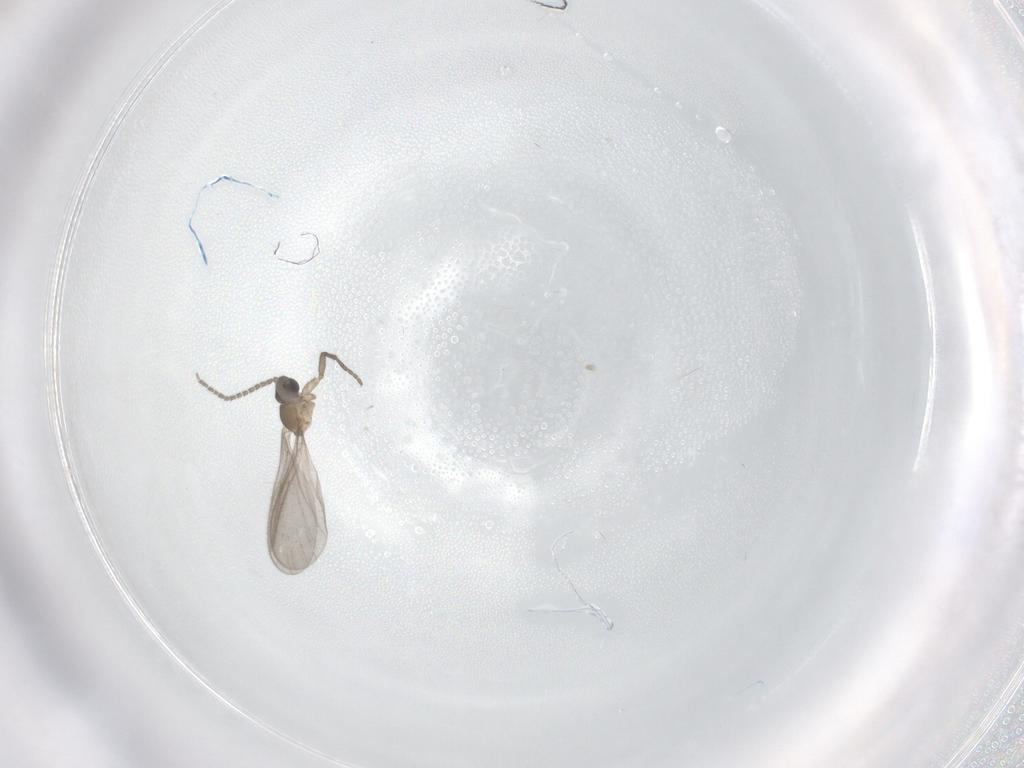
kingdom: Animalia
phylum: Arthropoda
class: Insecta
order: Diptera
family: Sciaridae
